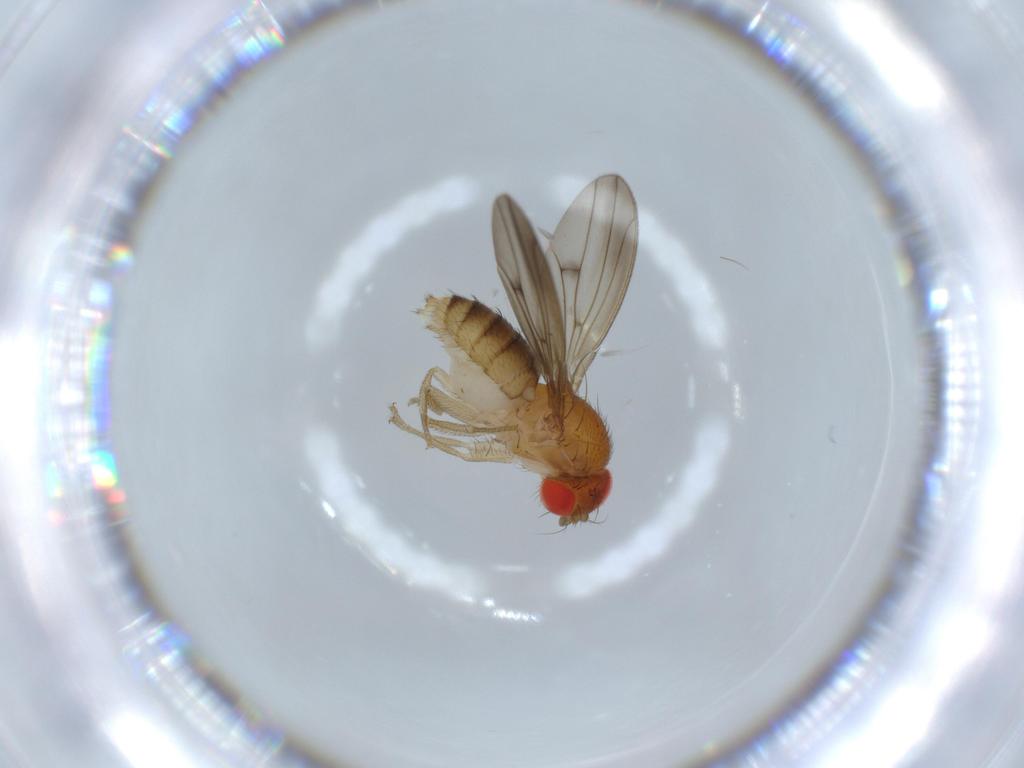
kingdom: Animalia
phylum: Arthropoda
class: Insecta
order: Diptera
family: Drosophilidae
